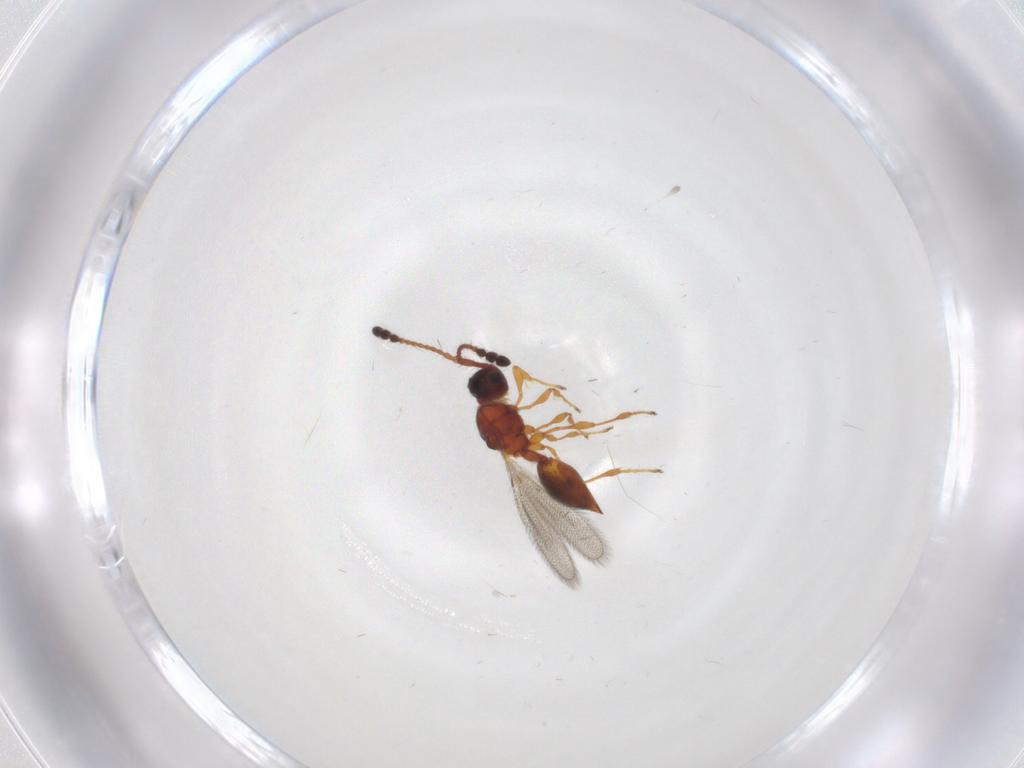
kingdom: Animalia
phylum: Arthropoda
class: Insecta
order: Hymenoptera
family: Diapriidae
